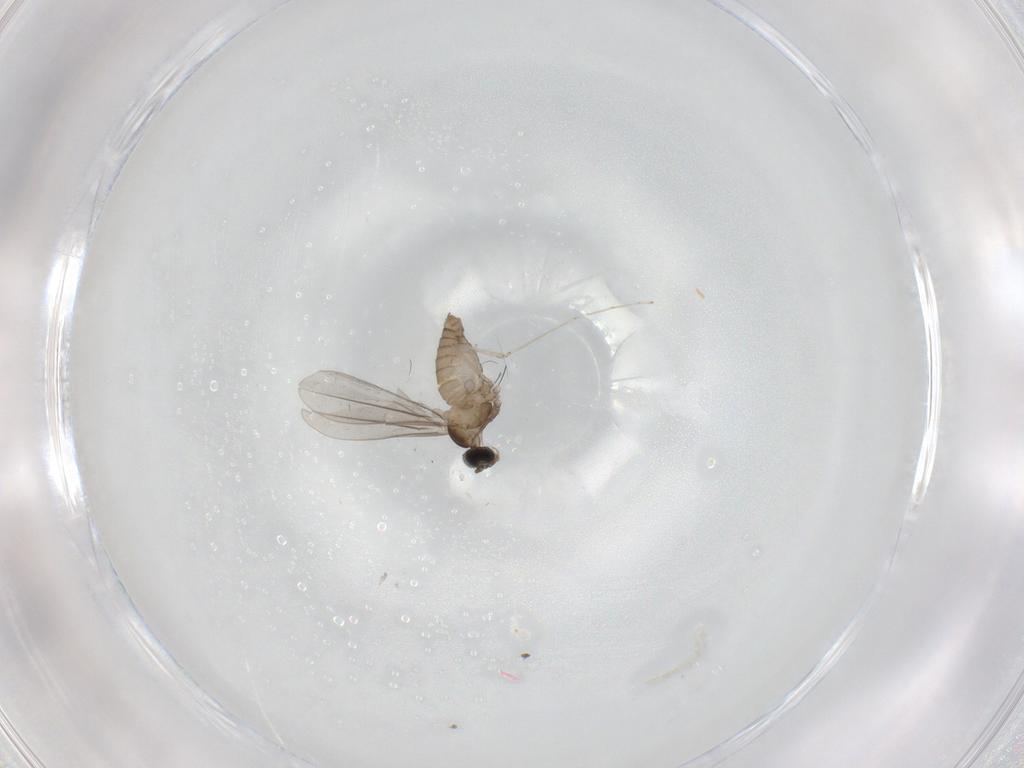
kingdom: Animalia
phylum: Arthropoda
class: Insecta
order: Diptera
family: Cecidomyiidae
